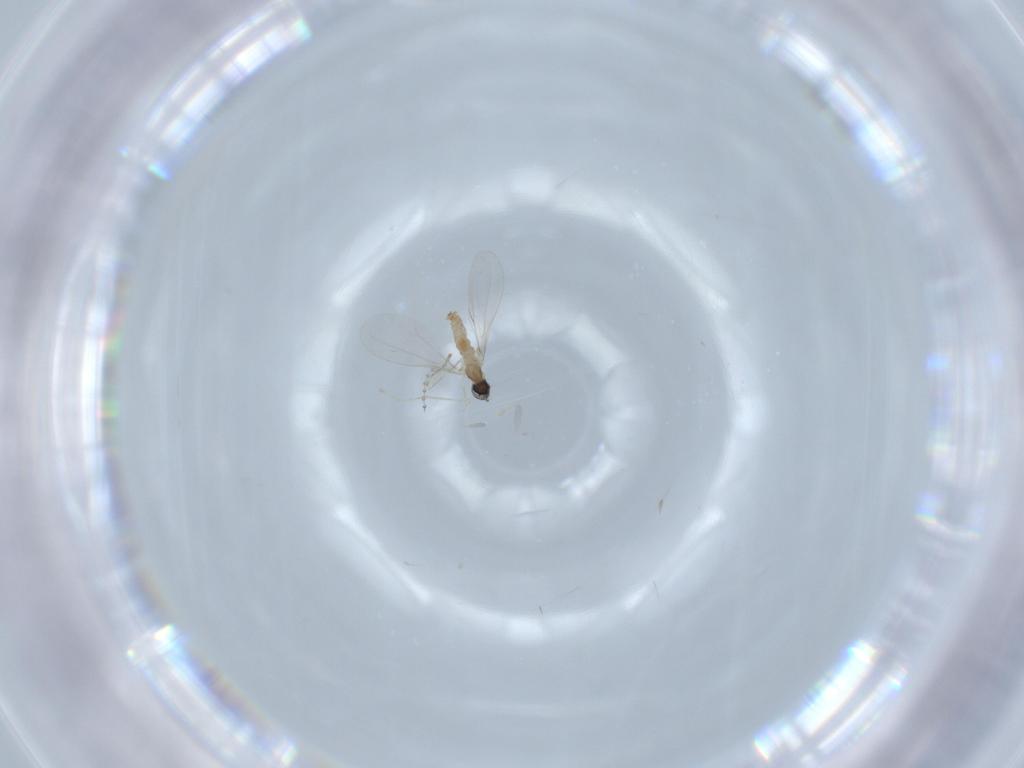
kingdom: Animalia
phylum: Arthropoda
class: Insecta
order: Diptera
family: Cecidomyiidae
